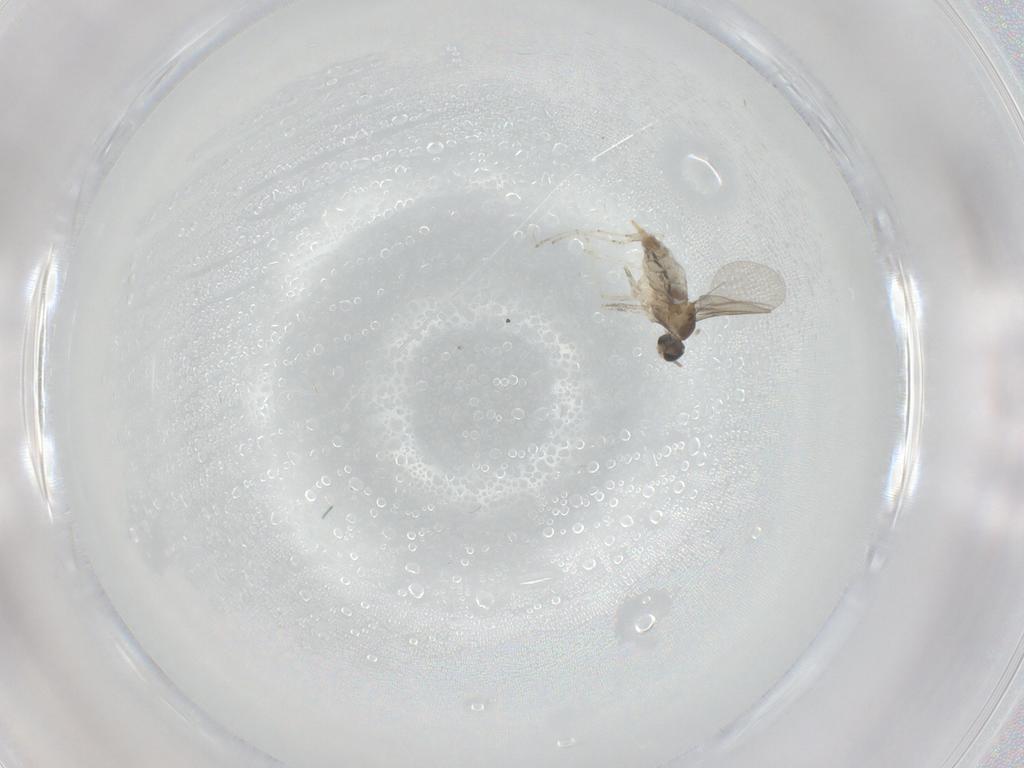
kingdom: Animalia
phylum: Arthropoda
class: Insecta
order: Diptera
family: Cecidomyiidae
